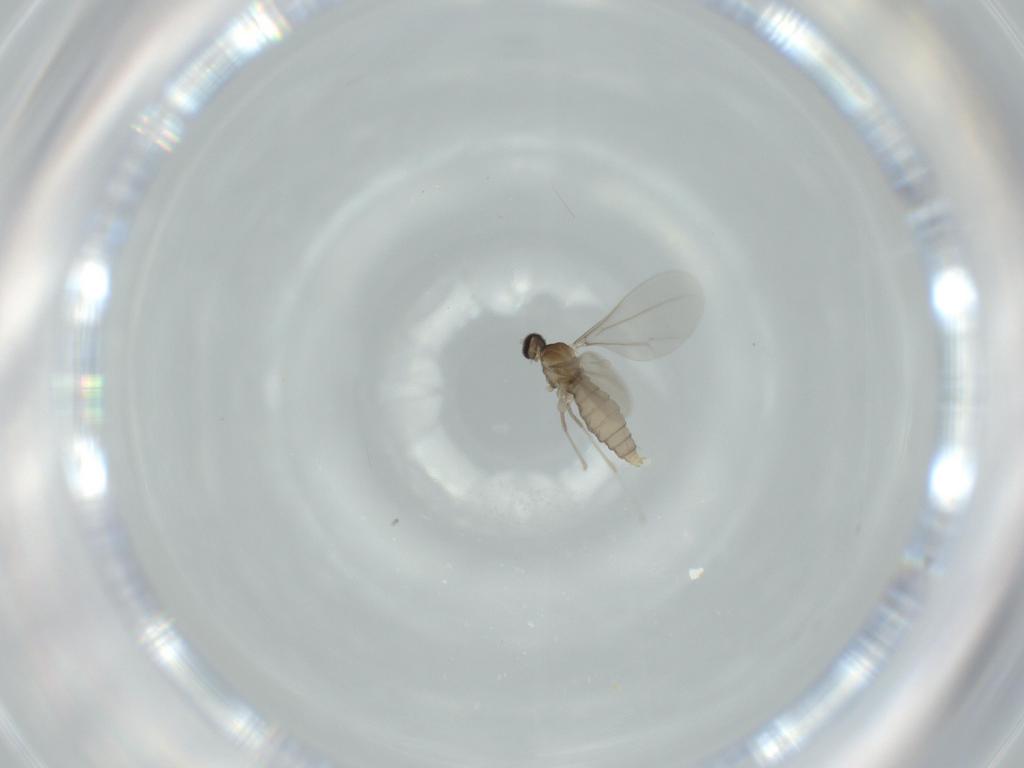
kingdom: Animalia
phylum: Arthropoda
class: Insecta
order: Diptera
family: Cecidomyiidae
